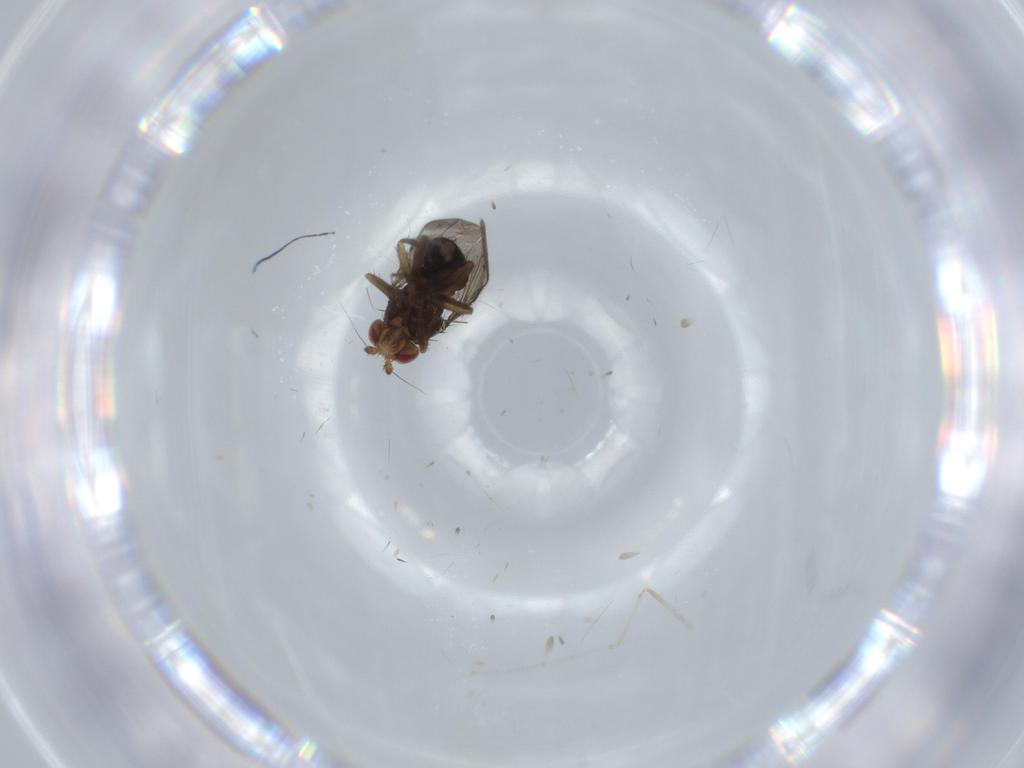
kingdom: Animalia
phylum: Arthropoda
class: Insecta
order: Diptera
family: Cecidomyiidae
